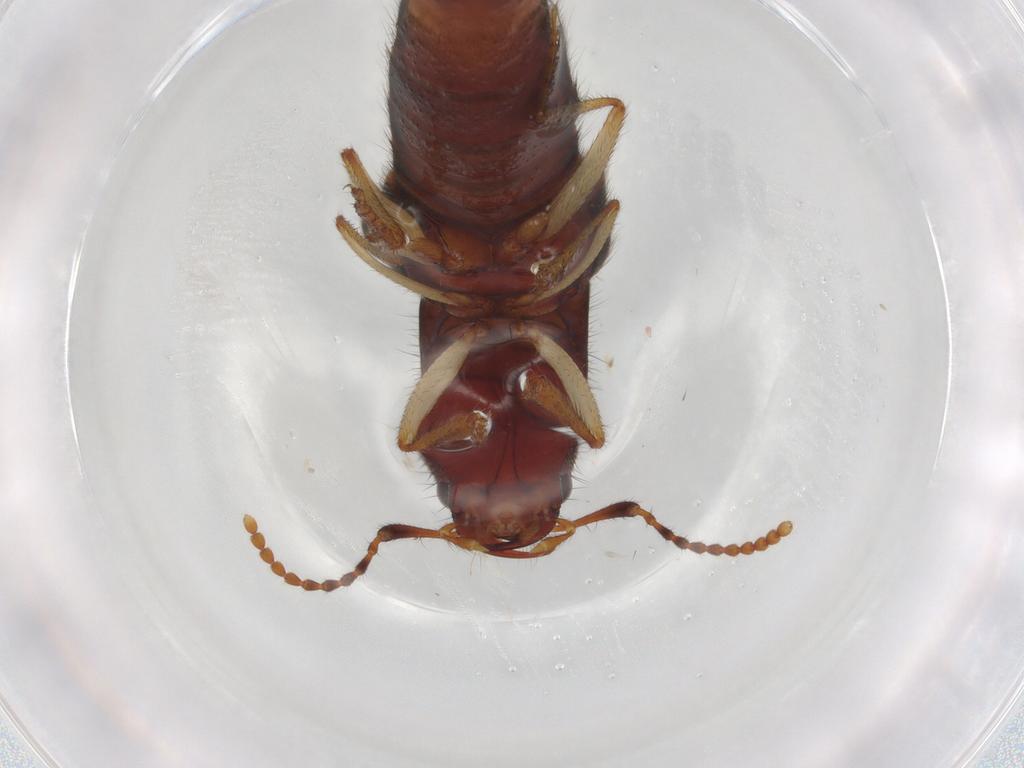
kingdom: Animalia
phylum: Arthropoda
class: Insecta
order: Coleoptera
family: Staphylinidae
